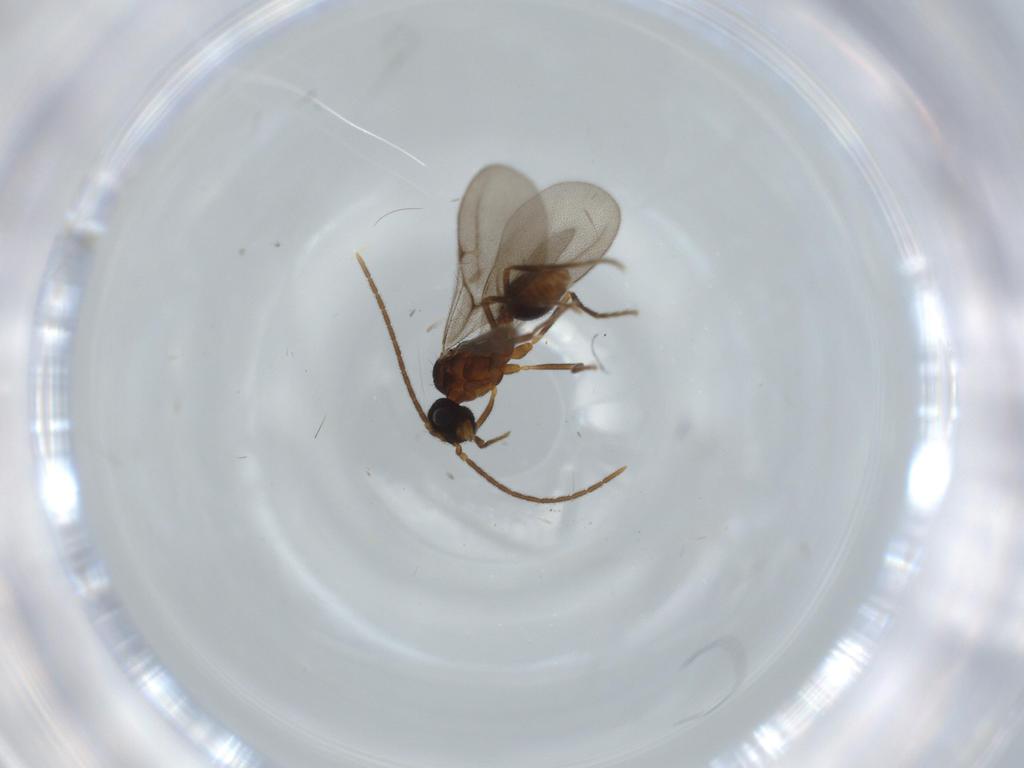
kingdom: Animalia
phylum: Arthropoda
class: Insecta
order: Hymenoptera
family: Formicidae
